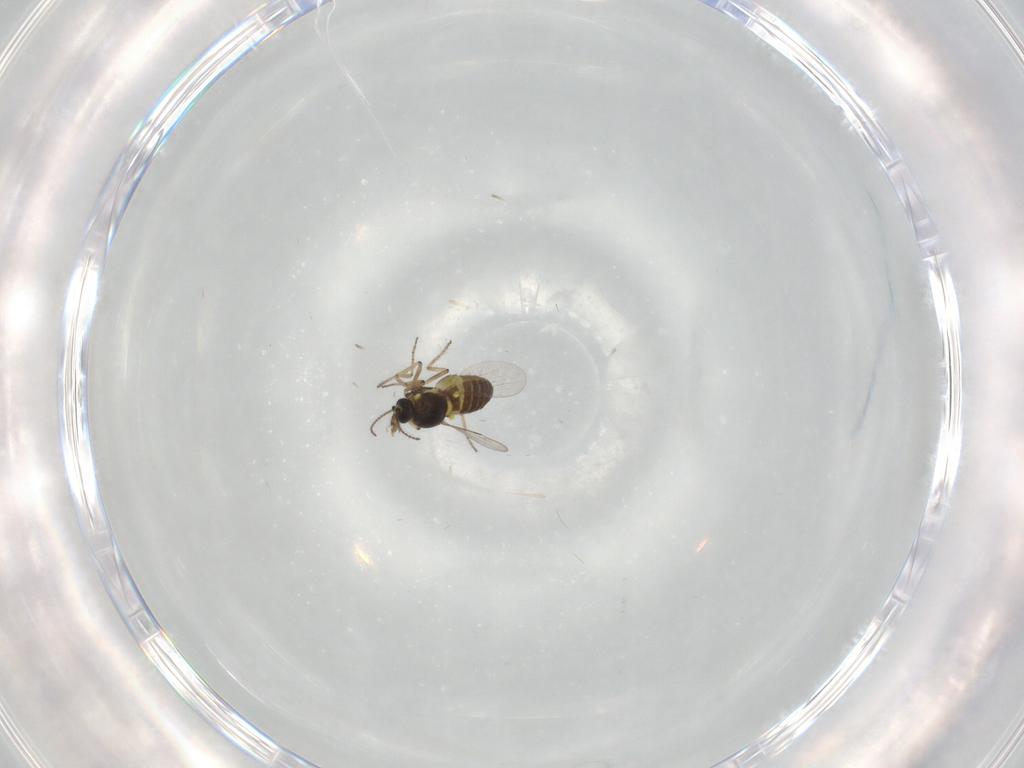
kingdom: Animalia
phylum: Arthropoda
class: Insecta
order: Diptera
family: Ceratopogonidae
